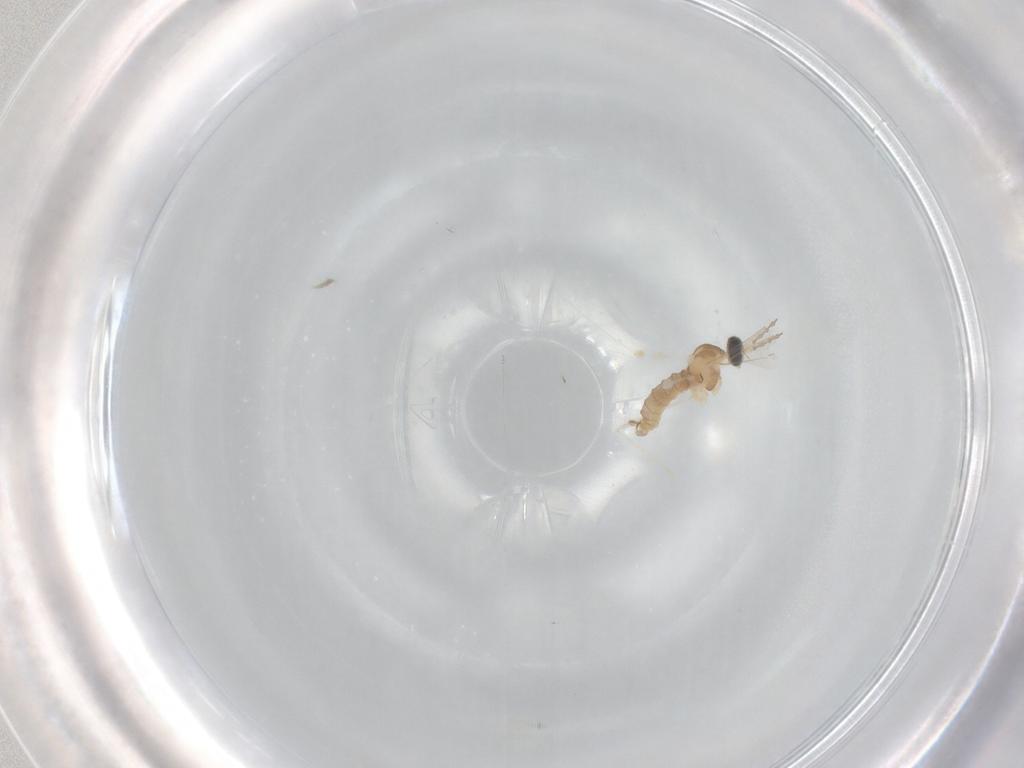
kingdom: Animalia
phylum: Arthropoda
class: Insecta
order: Diptera
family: Cecidomyiidae
